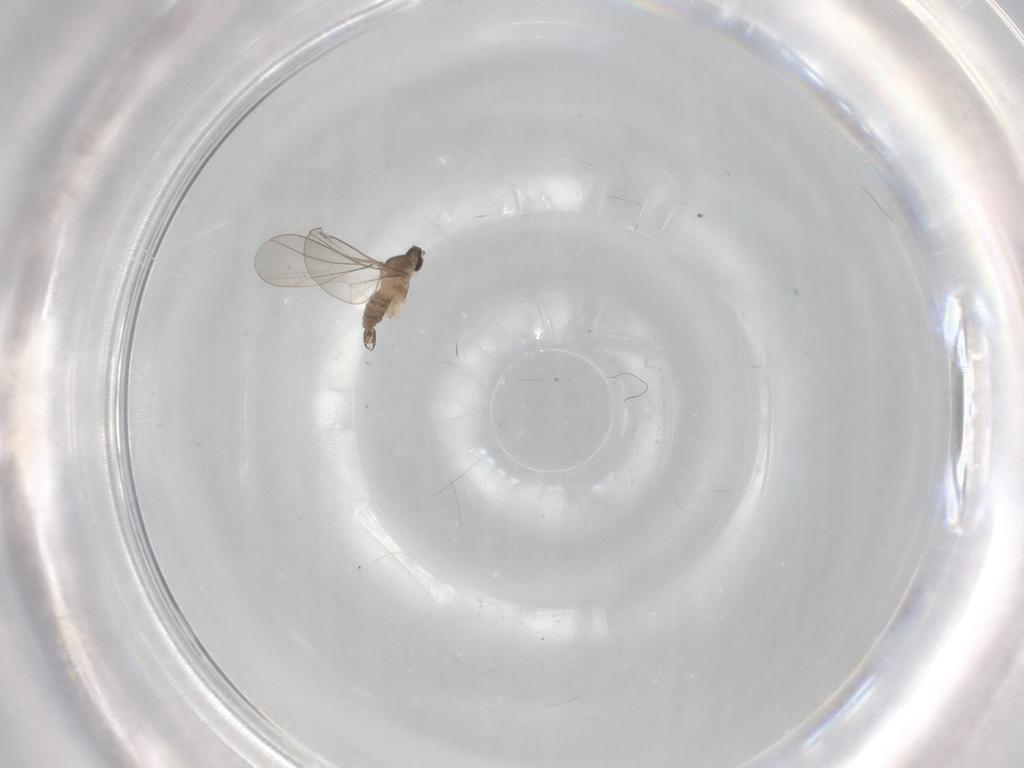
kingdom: Animalia
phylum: Arthropoda
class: Insecta
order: Diptera
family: Cecidomyiidae
